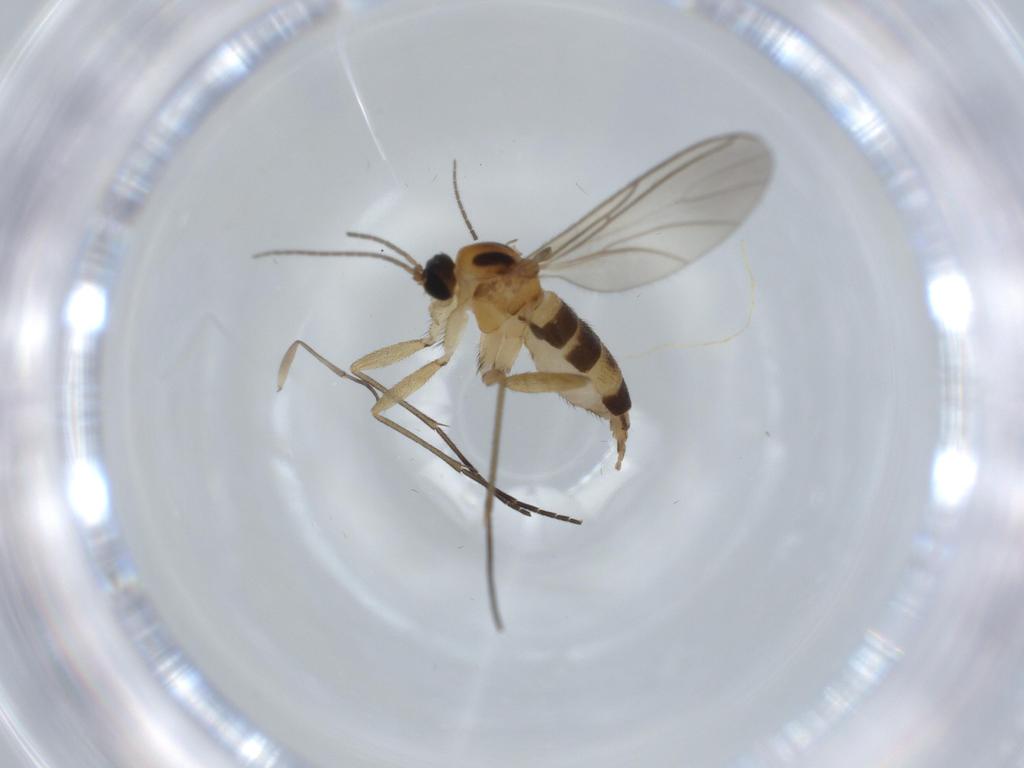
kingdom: Animalia
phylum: Arthropoda
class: Insecta
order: Diptera
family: Sciaridae
